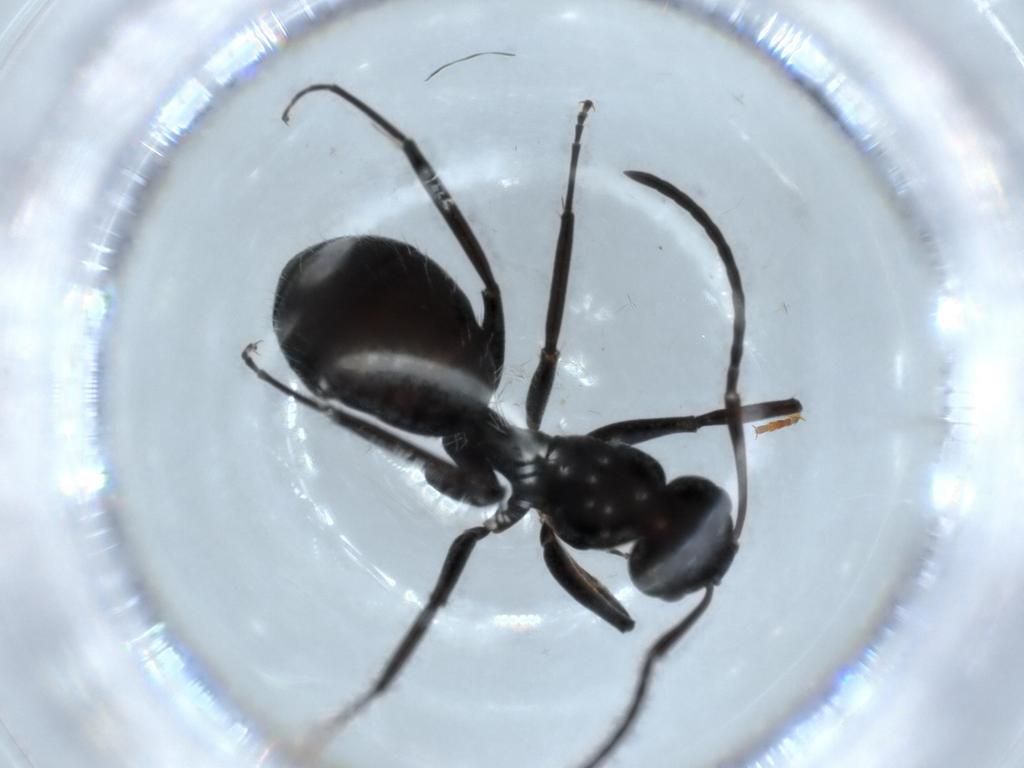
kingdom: Animalia
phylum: Arthropoda
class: Insecta
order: Hymenoptera
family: Formicidae
